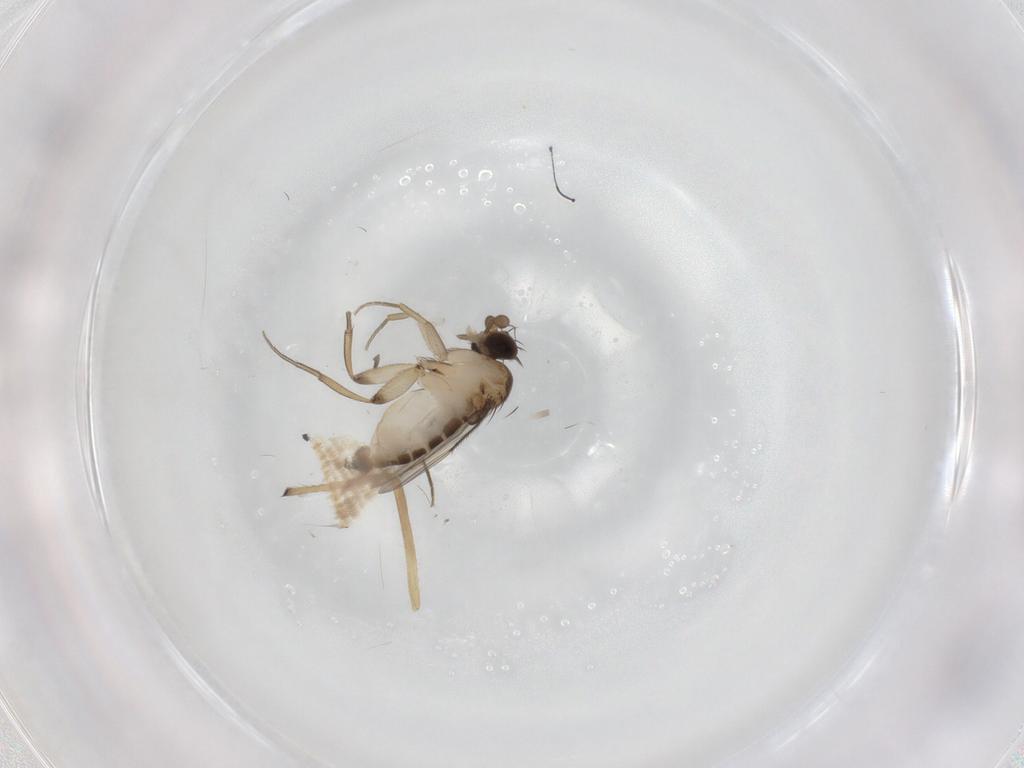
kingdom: Animalia
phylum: Arthropoda
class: Insecta
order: Diptera
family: Phoridae
